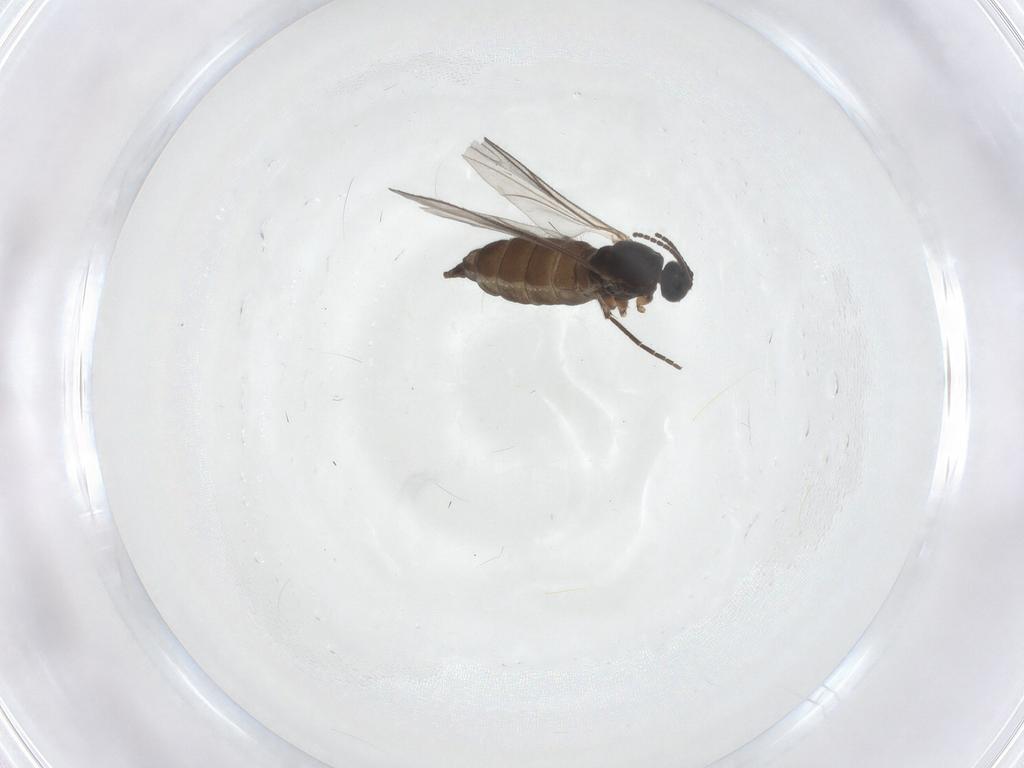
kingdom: Animalia
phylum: Arthropoda
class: Insecta
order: Diptera
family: Sciaridae
